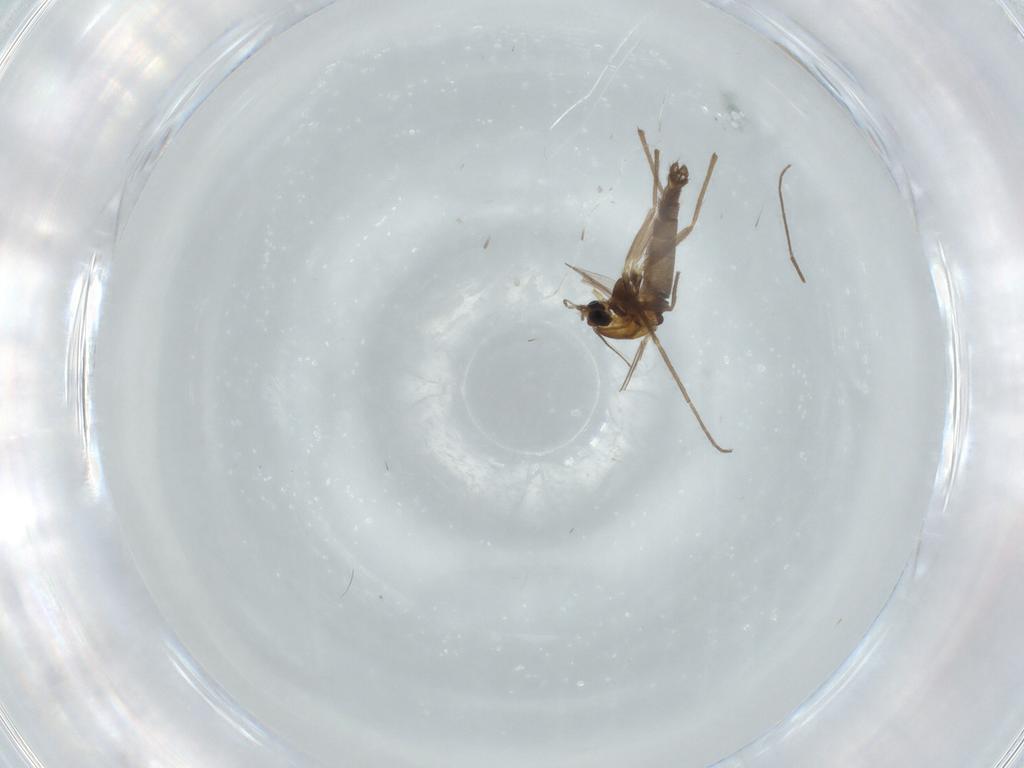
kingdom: Animalia
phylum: Arthropoda
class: Insecta
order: Diptera
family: Chironomidae
